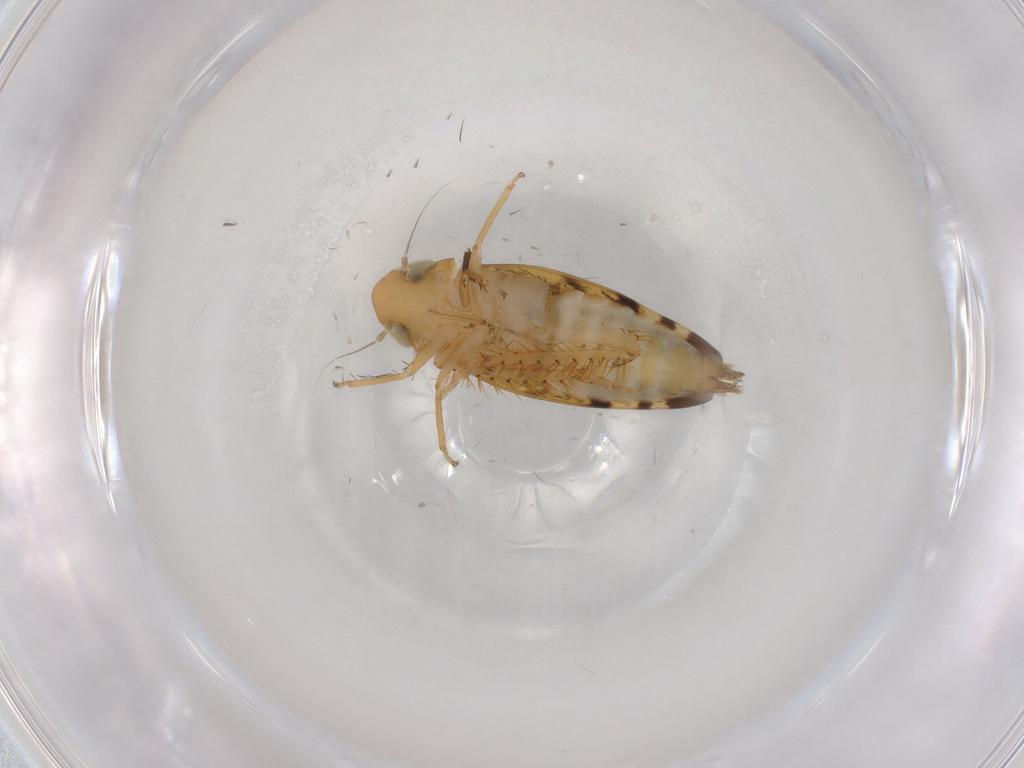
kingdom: Animalia
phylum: Arthropoda
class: Insecta
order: Hemiptera
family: Cicadellidae
